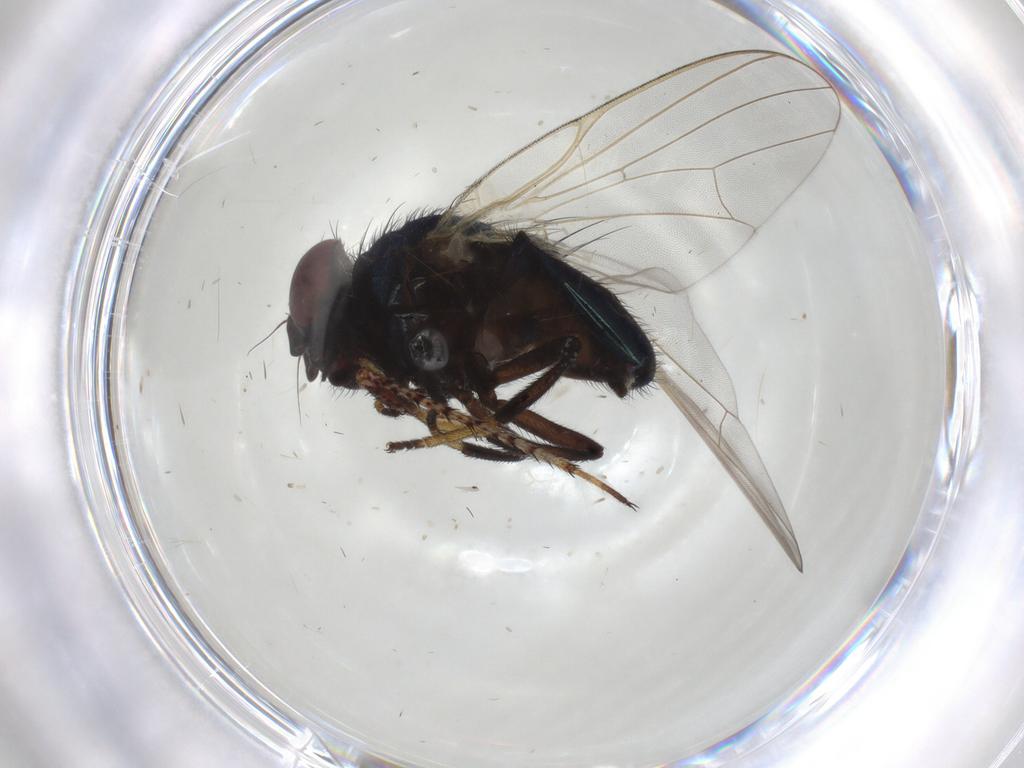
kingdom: Animalia
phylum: Arthropoda
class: Insecta
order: Diptera
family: Lonchaeidae
